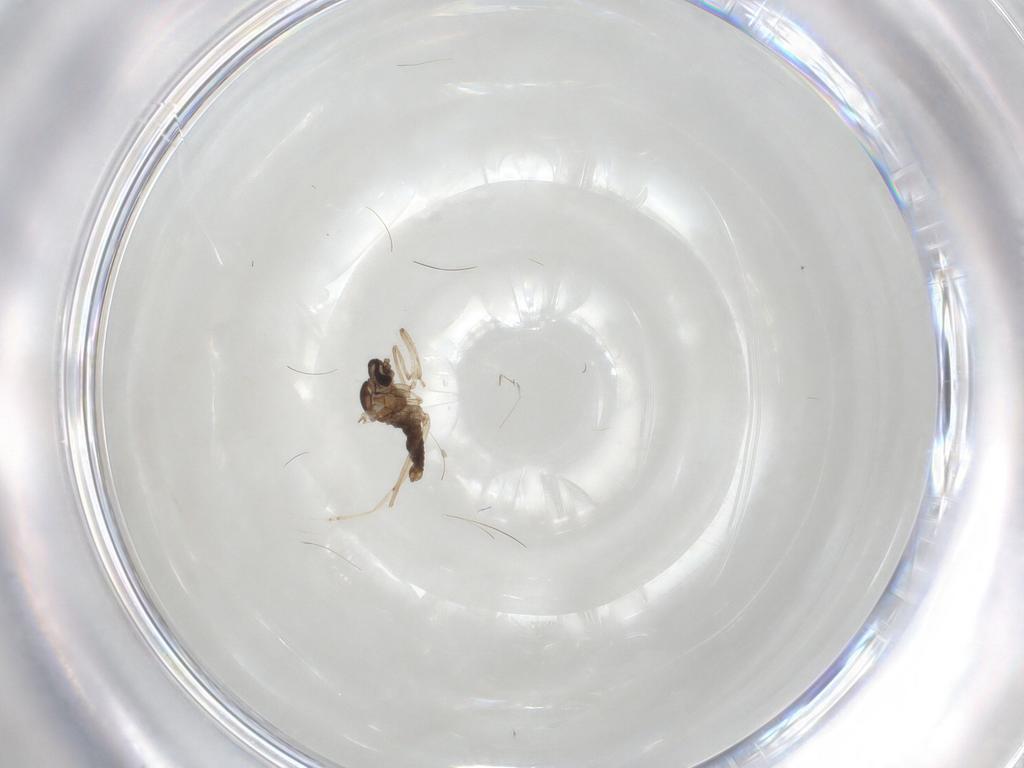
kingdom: Animalia
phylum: Arthropoda
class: Insecta
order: Diptera
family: Cecidomyiidae
